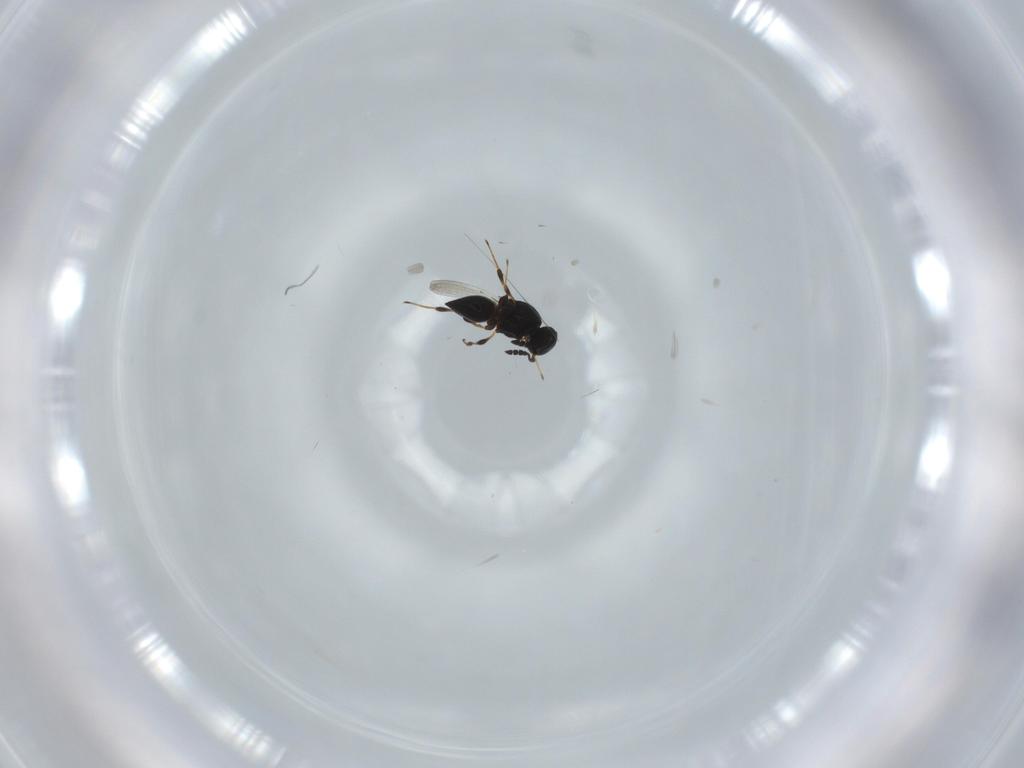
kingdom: Animalia
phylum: Arthropoda
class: Insecta
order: Hymenoptera
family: Platygastridae
